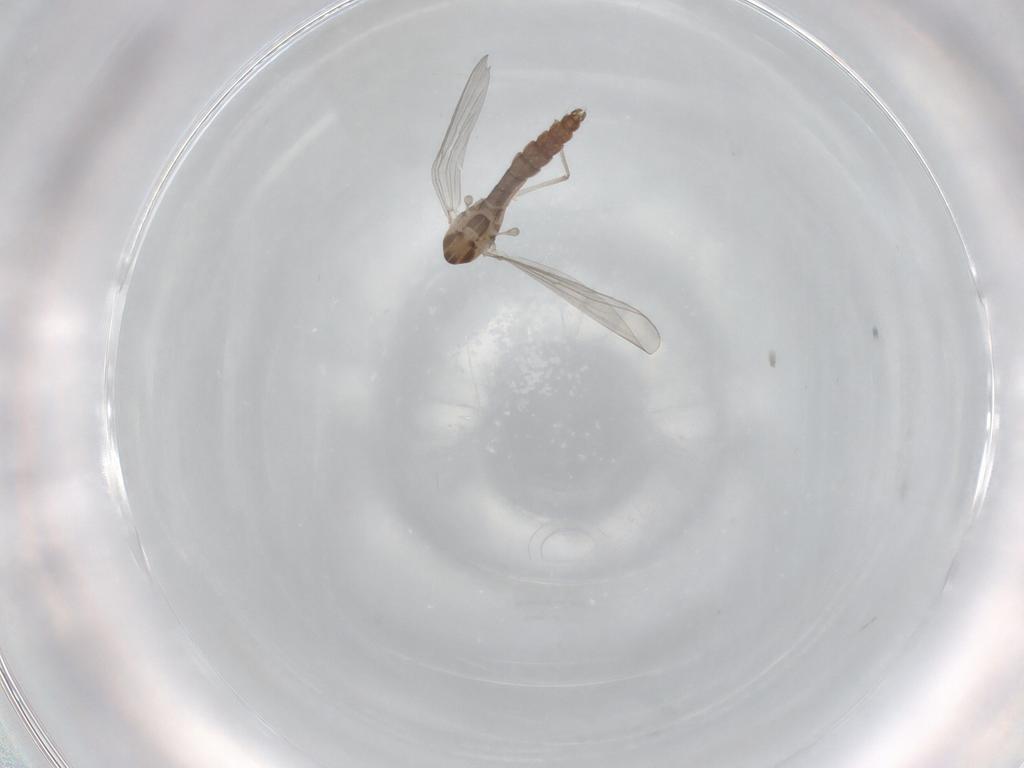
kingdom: Animalia
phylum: Arthropoda
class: Insecta
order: Diptera
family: Chironomidae
